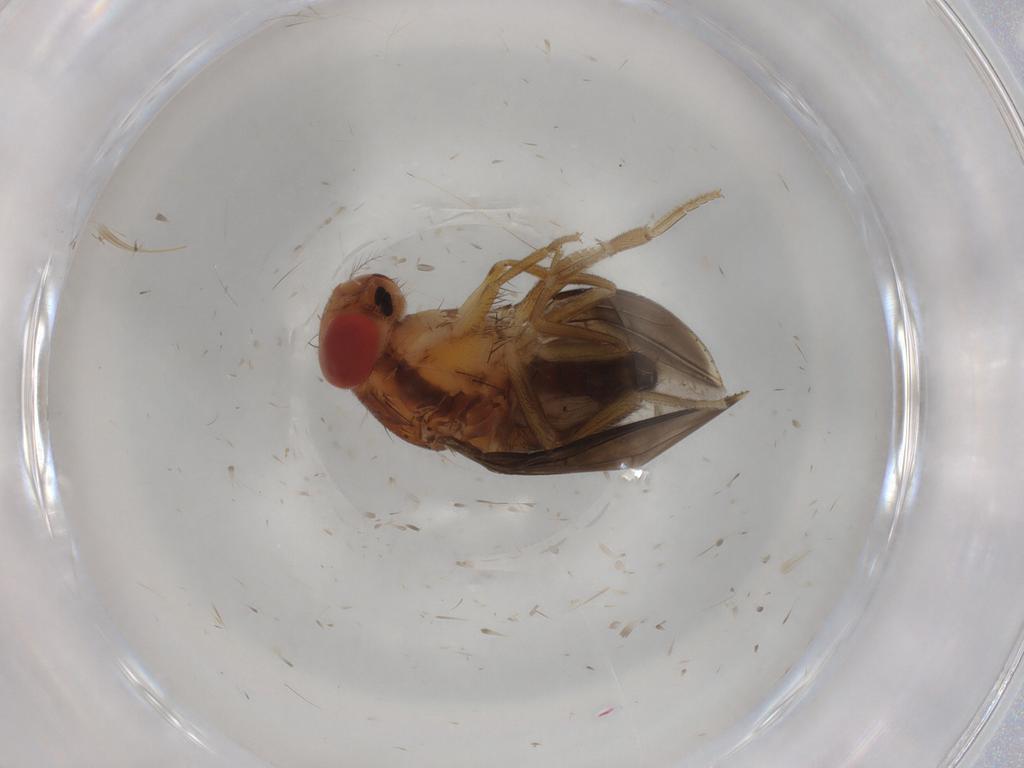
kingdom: Animalia
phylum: Arthropoda
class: Insecta
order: Diptera
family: Drosophilidae
